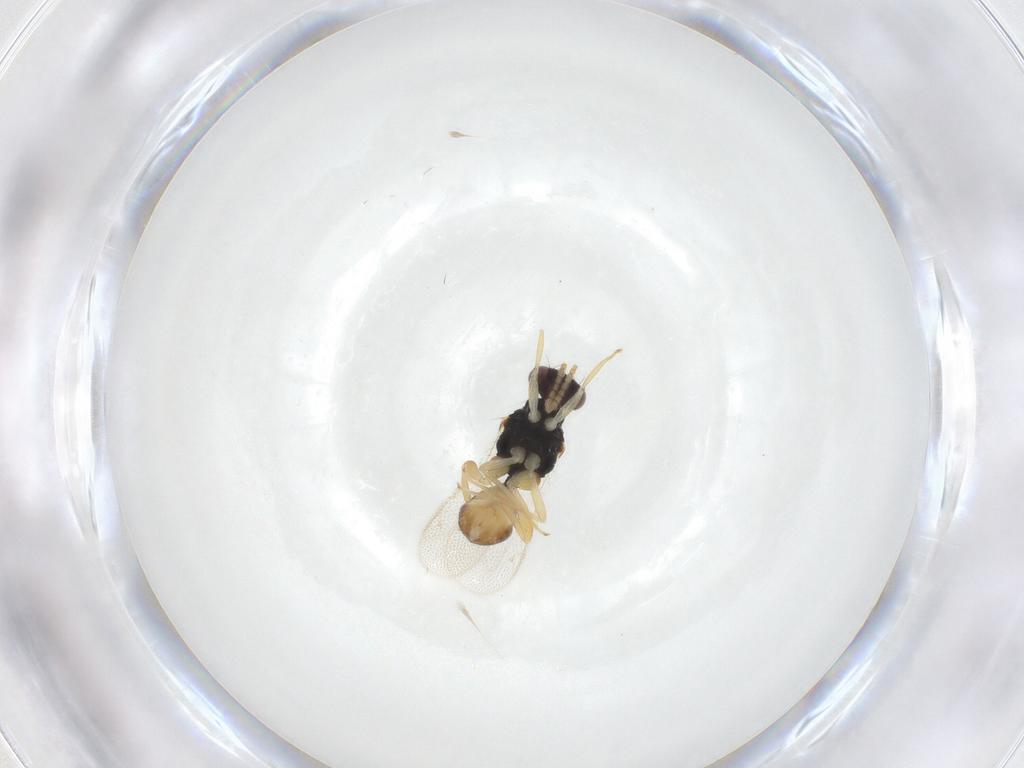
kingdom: Animalia
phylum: Arthropoda
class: Insecta
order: Hymenoptera
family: Eulophidae
